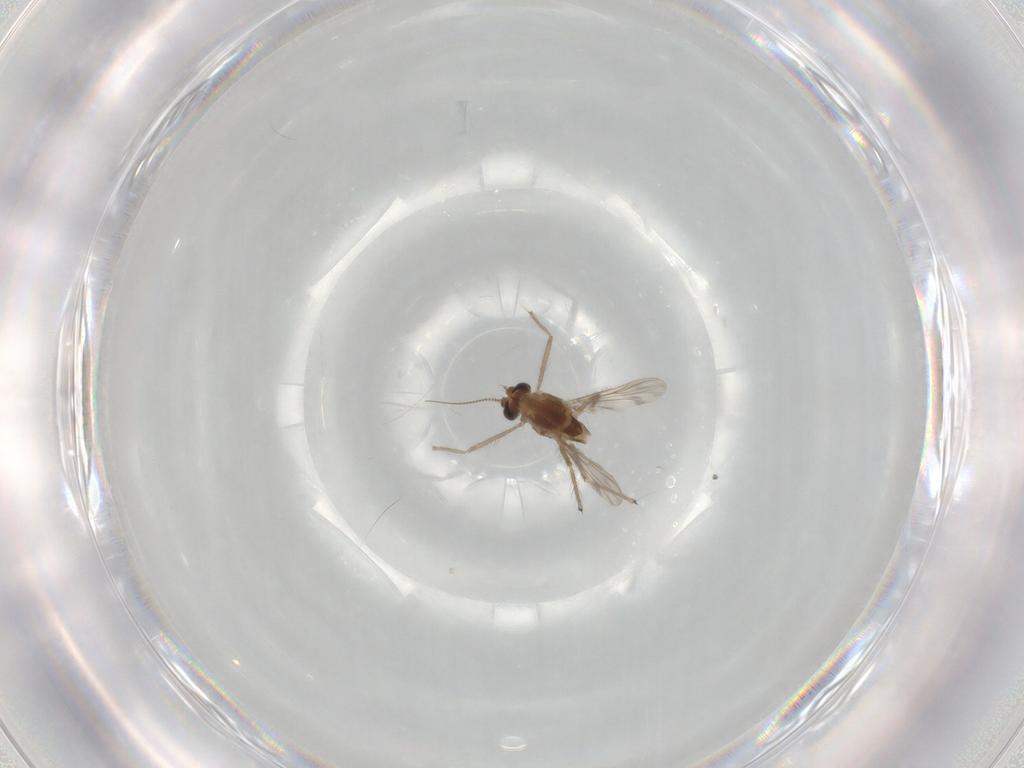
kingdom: Animalia
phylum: Arthropoda
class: Insecta
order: Diptera
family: Chironomidae
